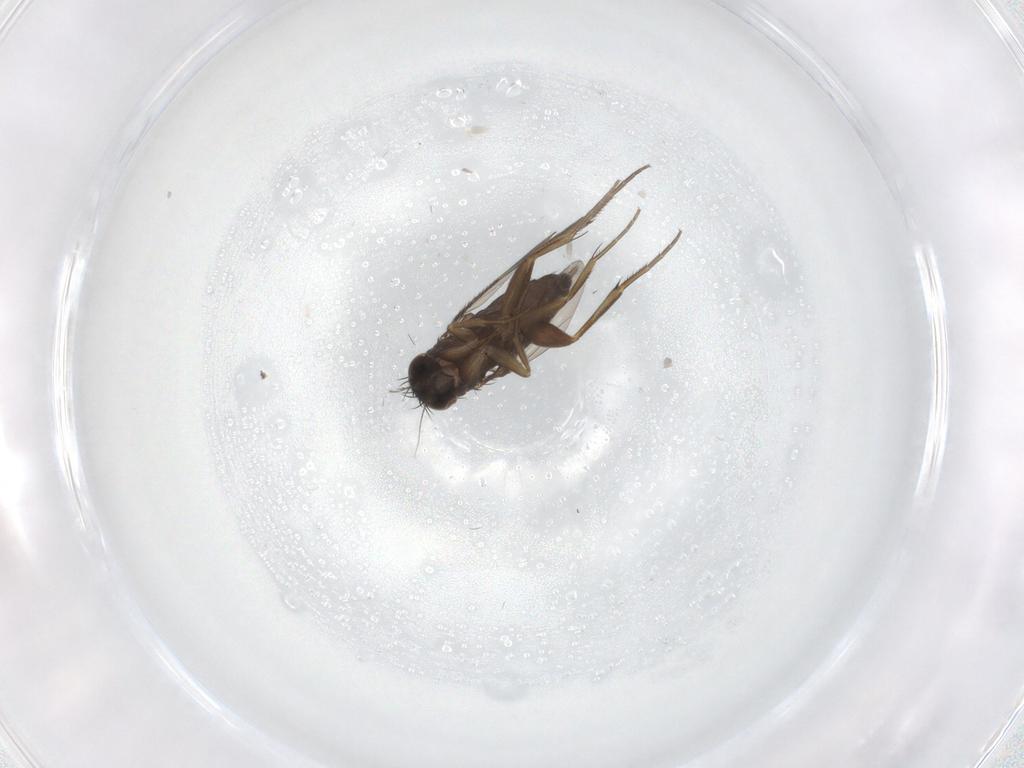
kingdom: Animalia
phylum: Arthropoda
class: Insecta
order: Diptera
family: Phoridae
